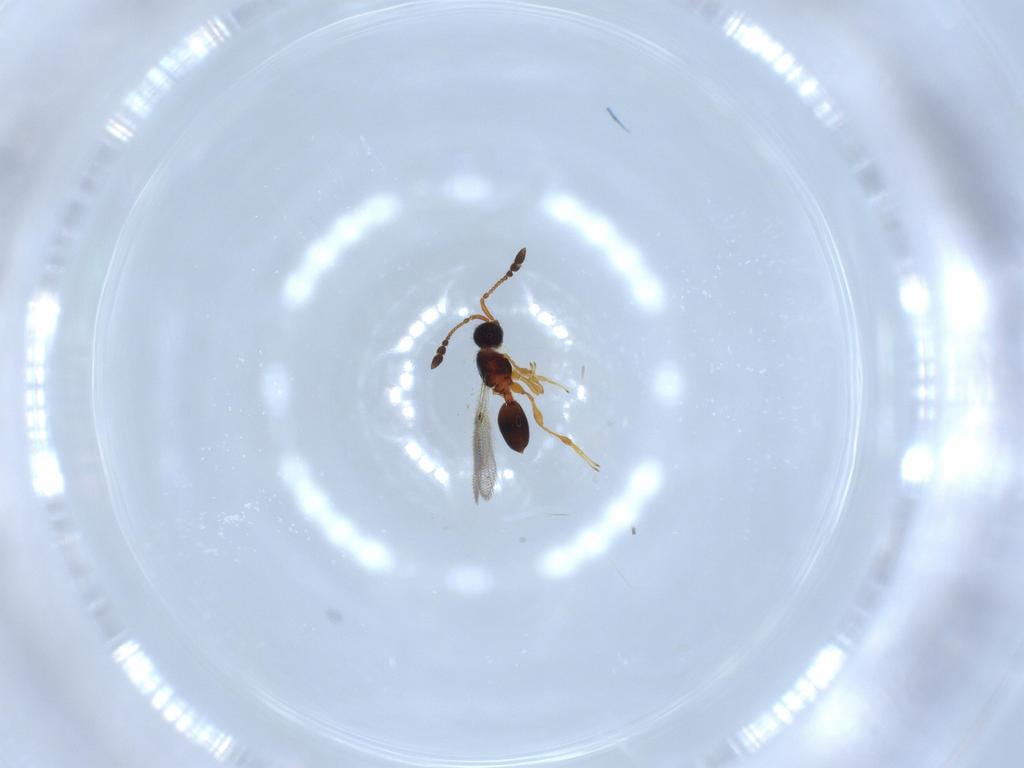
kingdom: Animalia
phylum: Arthropoda
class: Insecta
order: Hymenoptera
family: Diapriidae
